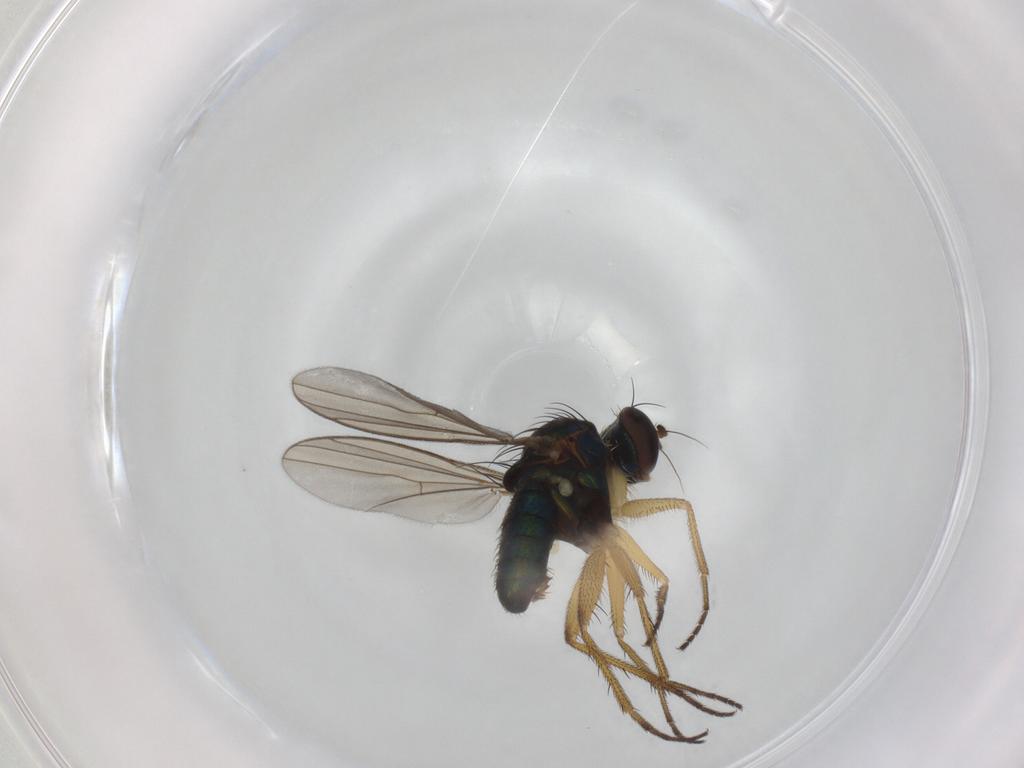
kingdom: Animalia
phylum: Arthropoda
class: Insecta
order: Diptera
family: Dolichopodidae
